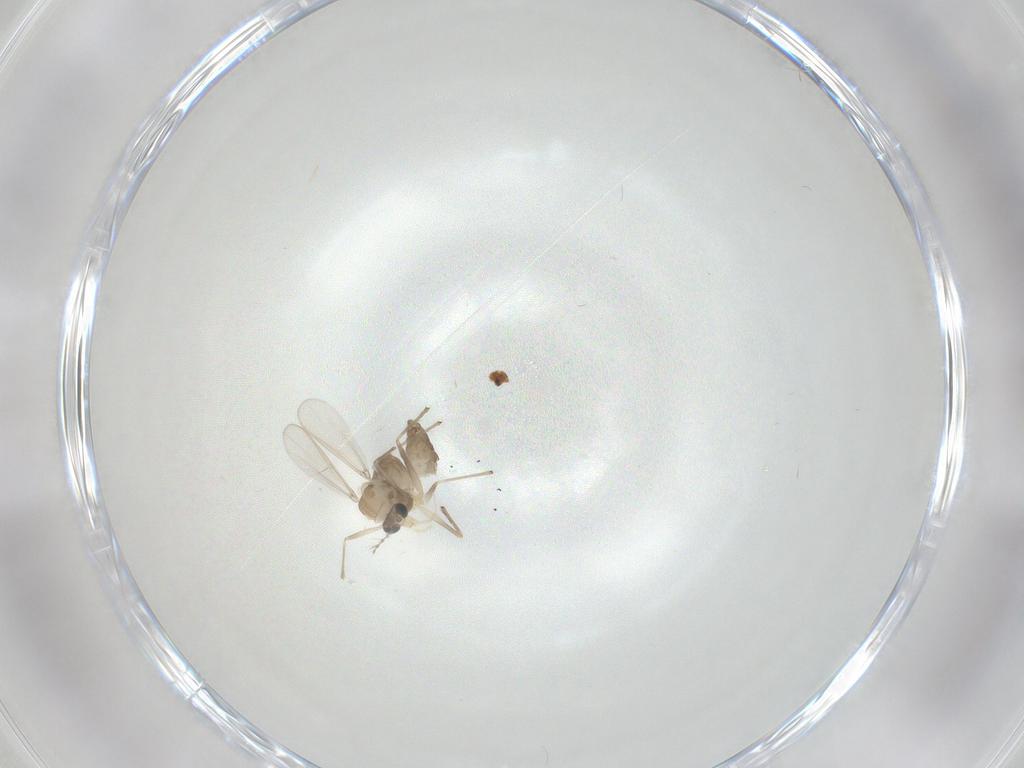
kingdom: Animalia
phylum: Arthropoda
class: Insecta
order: Diptera
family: Chironomidae
